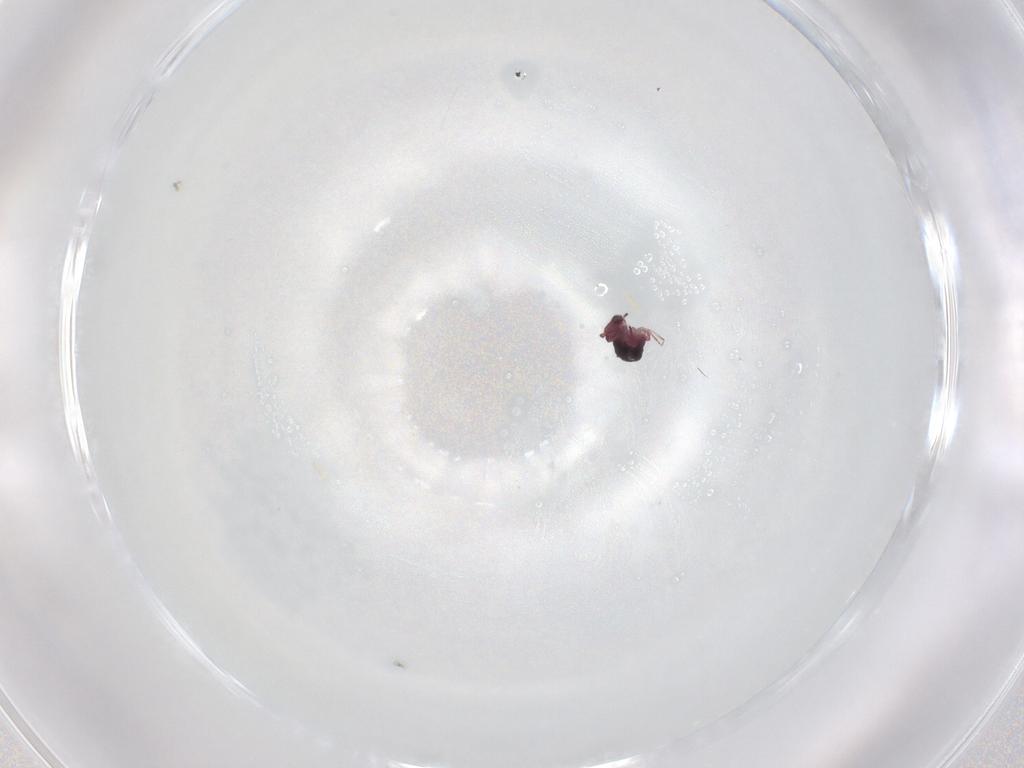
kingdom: Animalia
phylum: Arthropoda
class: Collembola
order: Symphypleona
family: Sminthurididae
